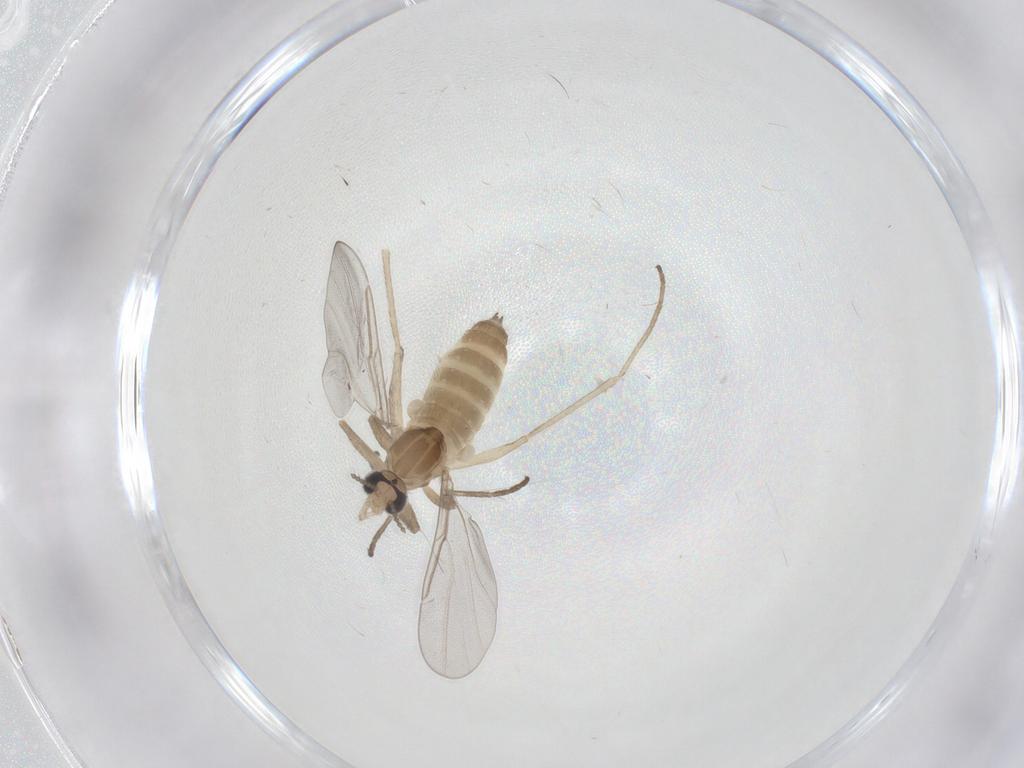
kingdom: Animalia
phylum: Arthropoda
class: Insecta
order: Diptera
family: Cecidomyiidae
